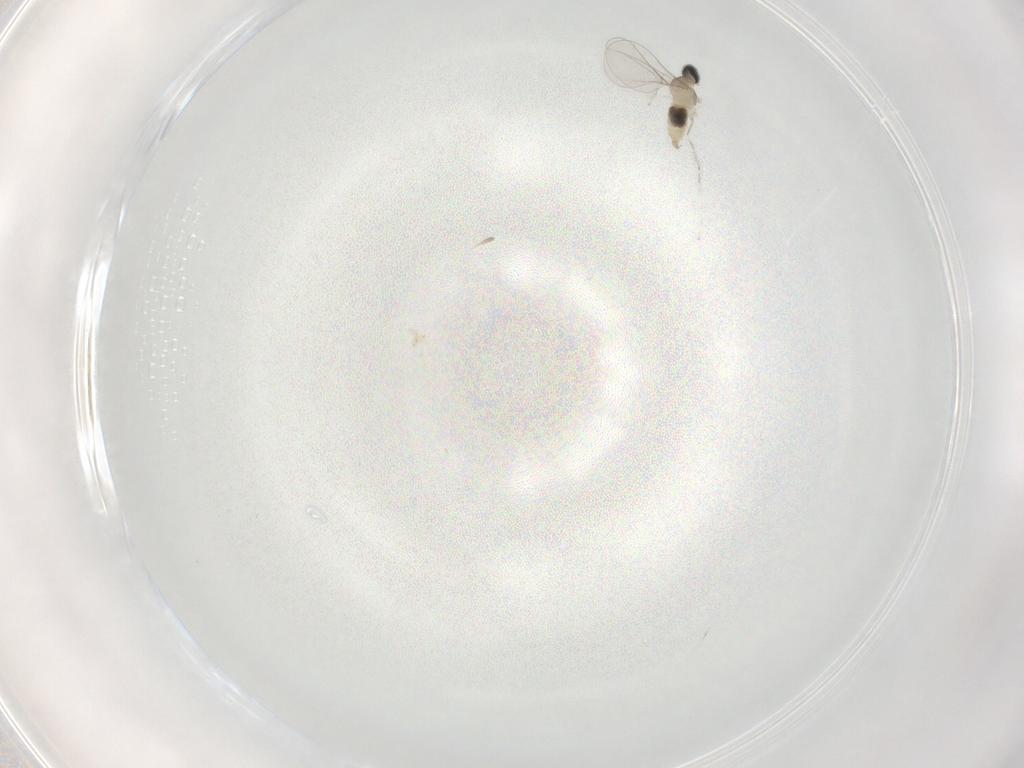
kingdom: Animalia
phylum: Arthropoda
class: Insecta
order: Diptera
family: Cecidomyiidae
